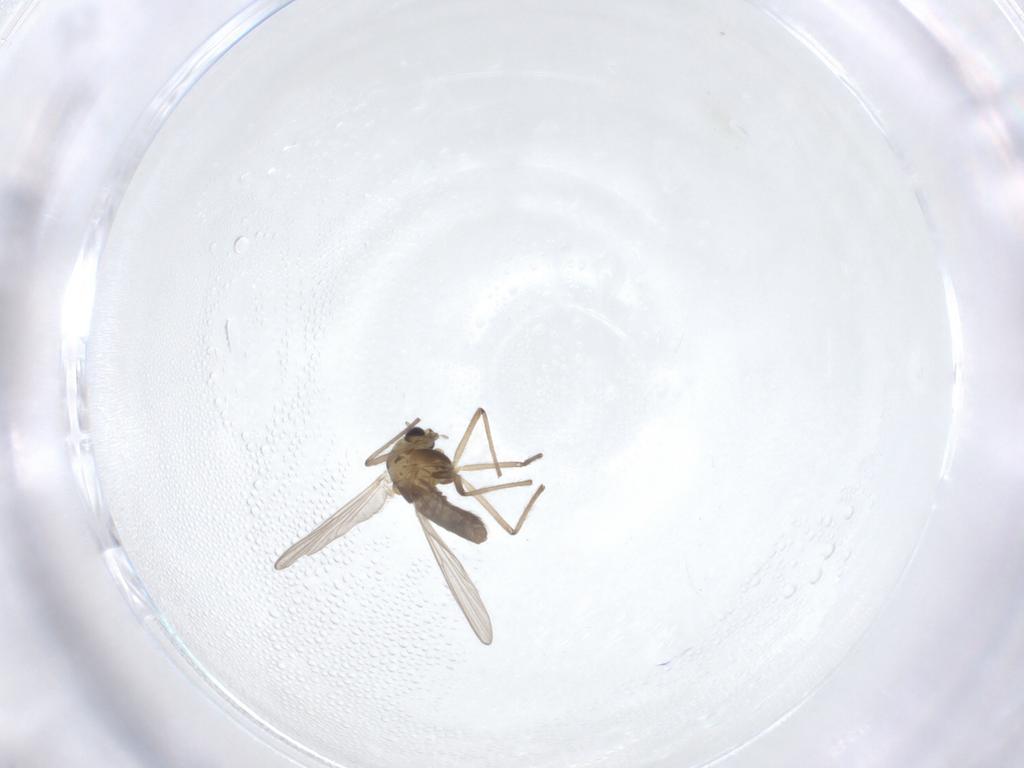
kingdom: Animalia
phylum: Arthropoda
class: Insecta
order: Diptera
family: Chironomidae
